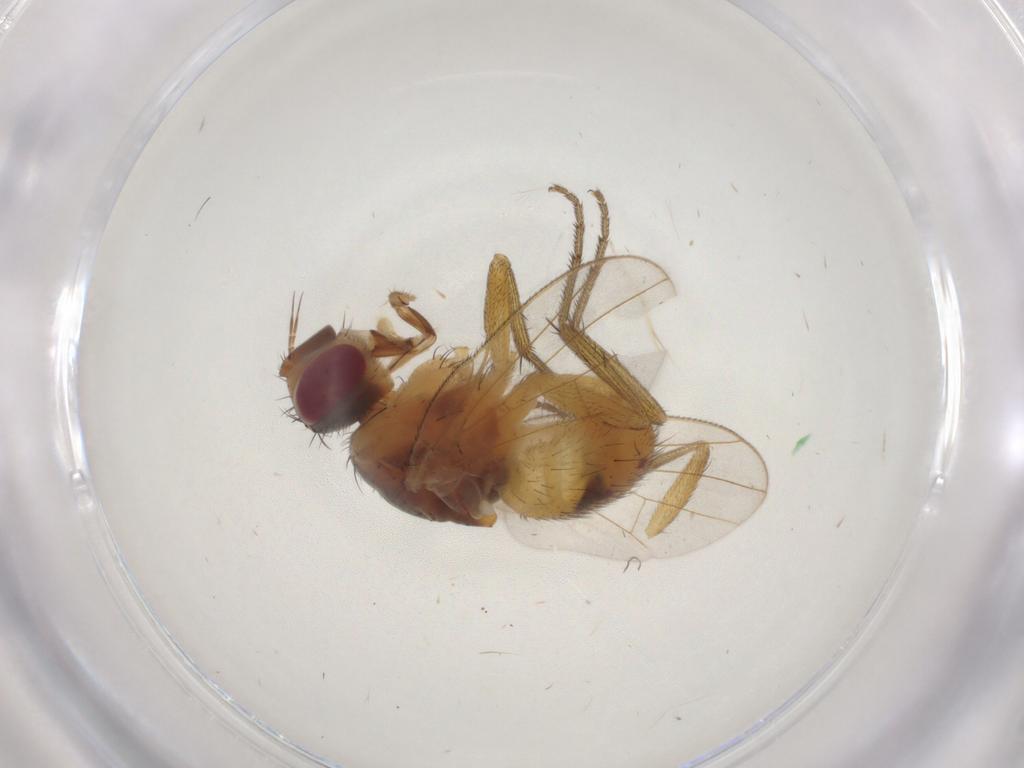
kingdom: Animalia
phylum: Arthropoda
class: Insecta
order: Diptera
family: Muscidae
